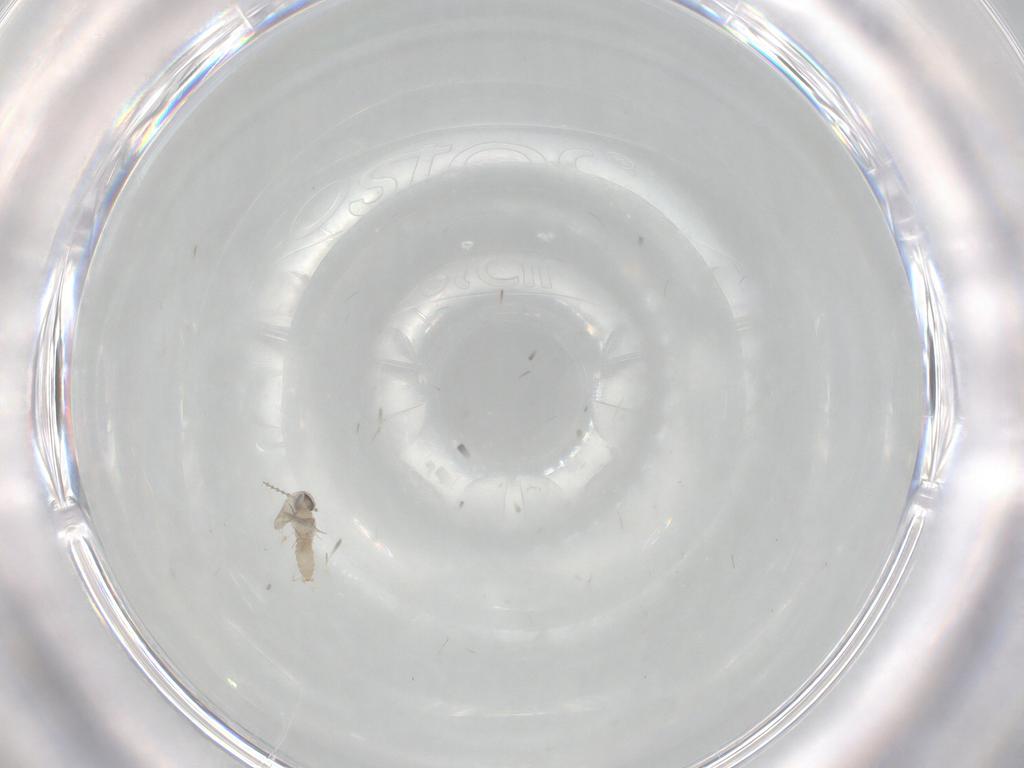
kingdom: Animalia
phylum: Arthropoda
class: Insecta
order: Diptera
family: Cecidomyiidae
